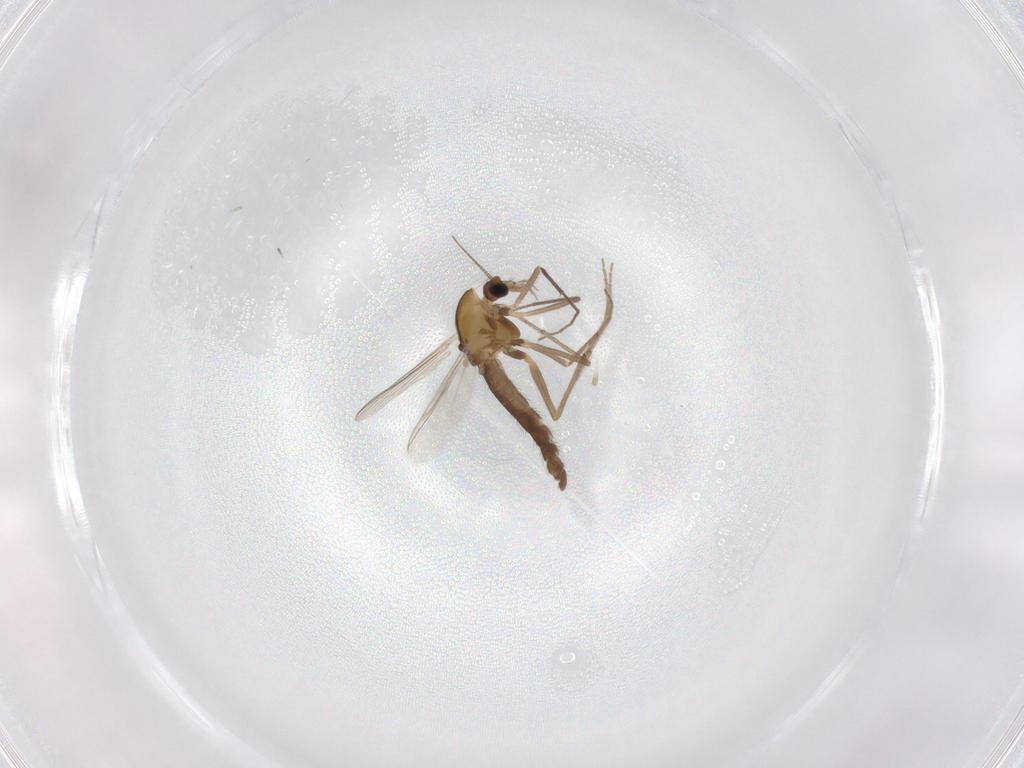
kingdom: Animalia
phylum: Arthropoda
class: Insecta
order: Diptera
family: Chironomidae
